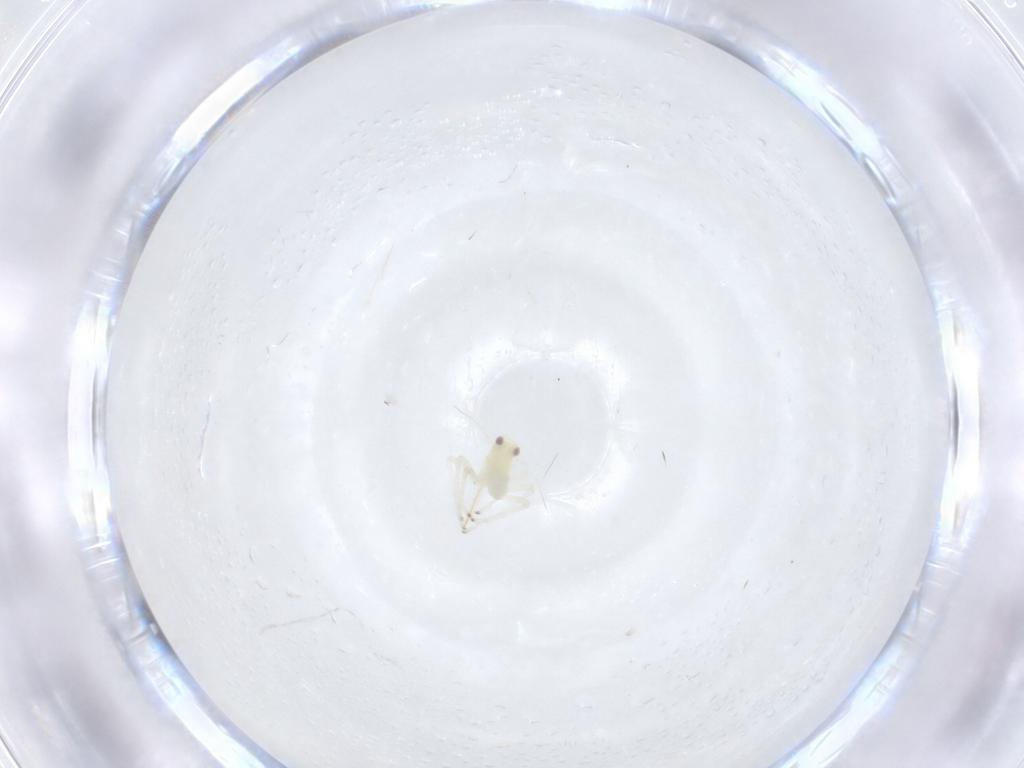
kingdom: Animalia
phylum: Arthropoda
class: Insecta
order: Hemiptera
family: Cicadellidae
